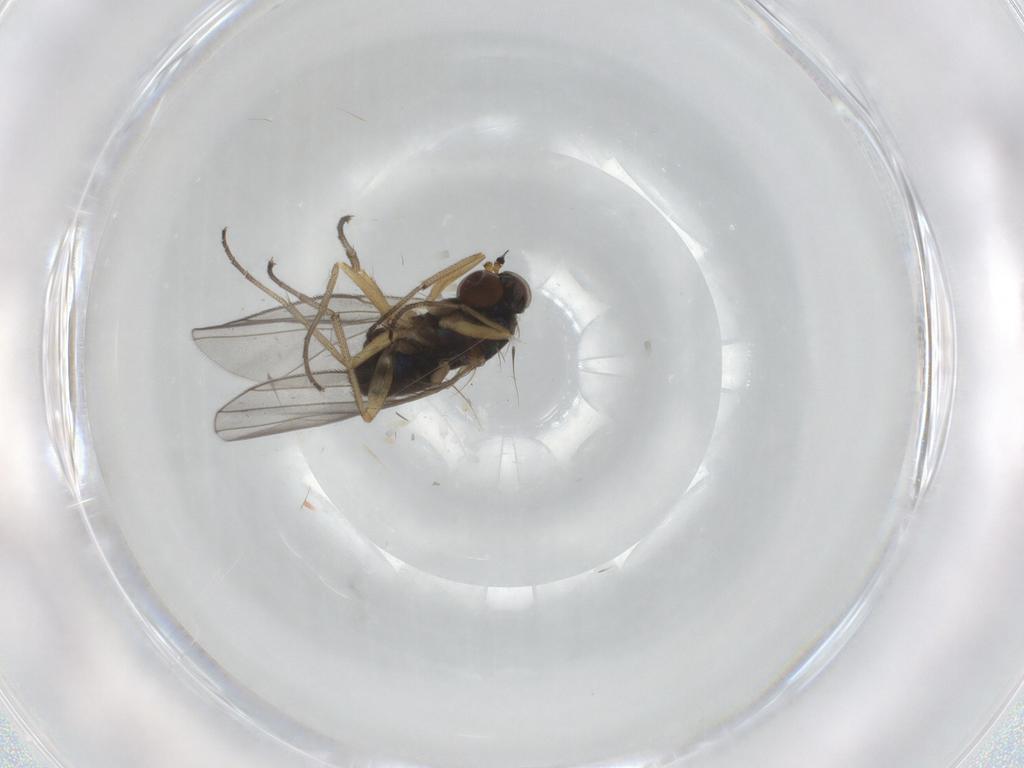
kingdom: Animalia
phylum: Arthropoda
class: Insecta
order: Diptera
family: Dolichopodidae
